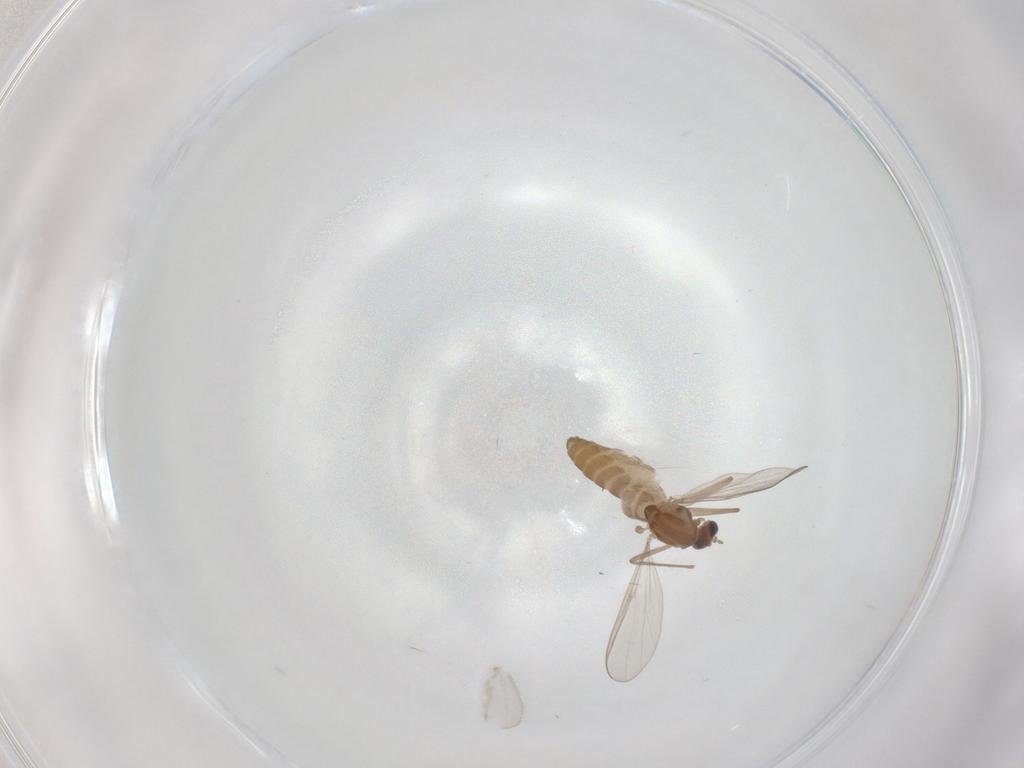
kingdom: Animalia
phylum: Arthropoda
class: Insecta
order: Diptera
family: Chironomidae
